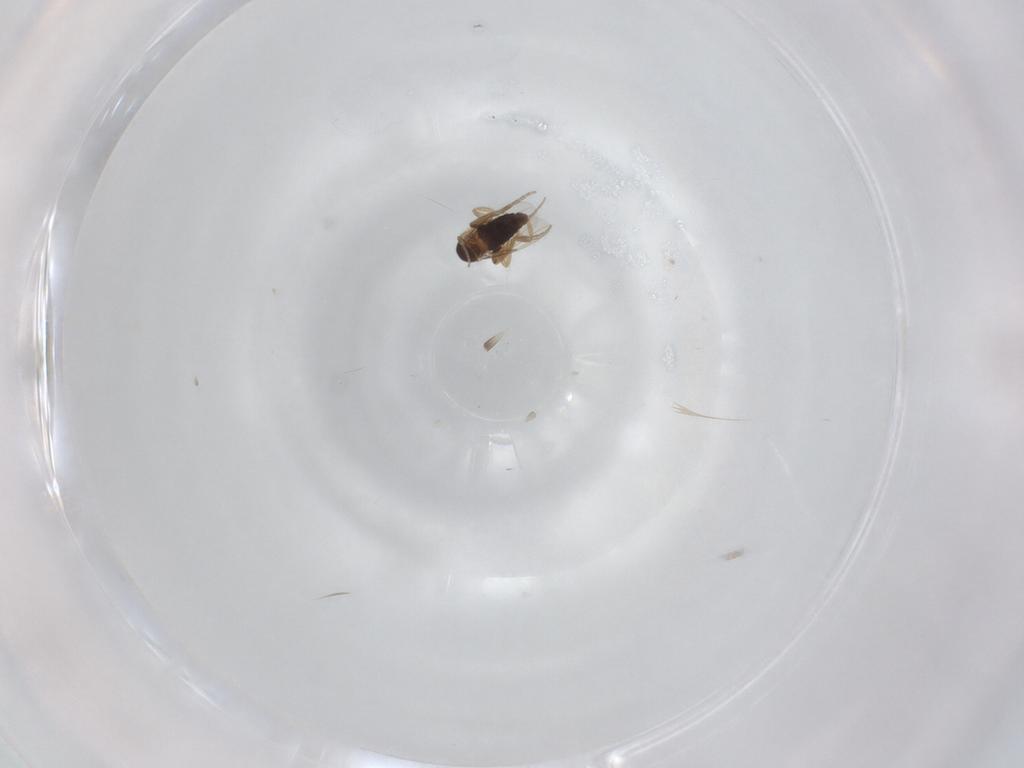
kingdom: Animalia
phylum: Arthropoda
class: Insecta
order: Diptera
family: Phoridae
